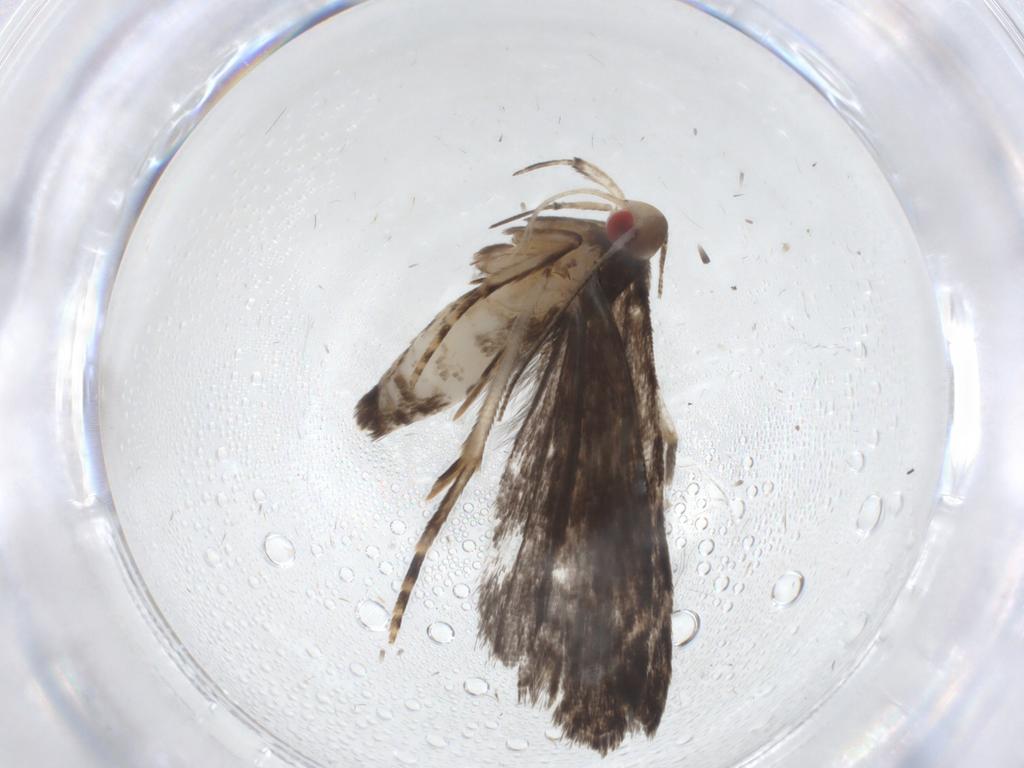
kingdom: Animalia
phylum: Arthropoda
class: Insecta
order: Lepidoptera
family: Gelechiidae
